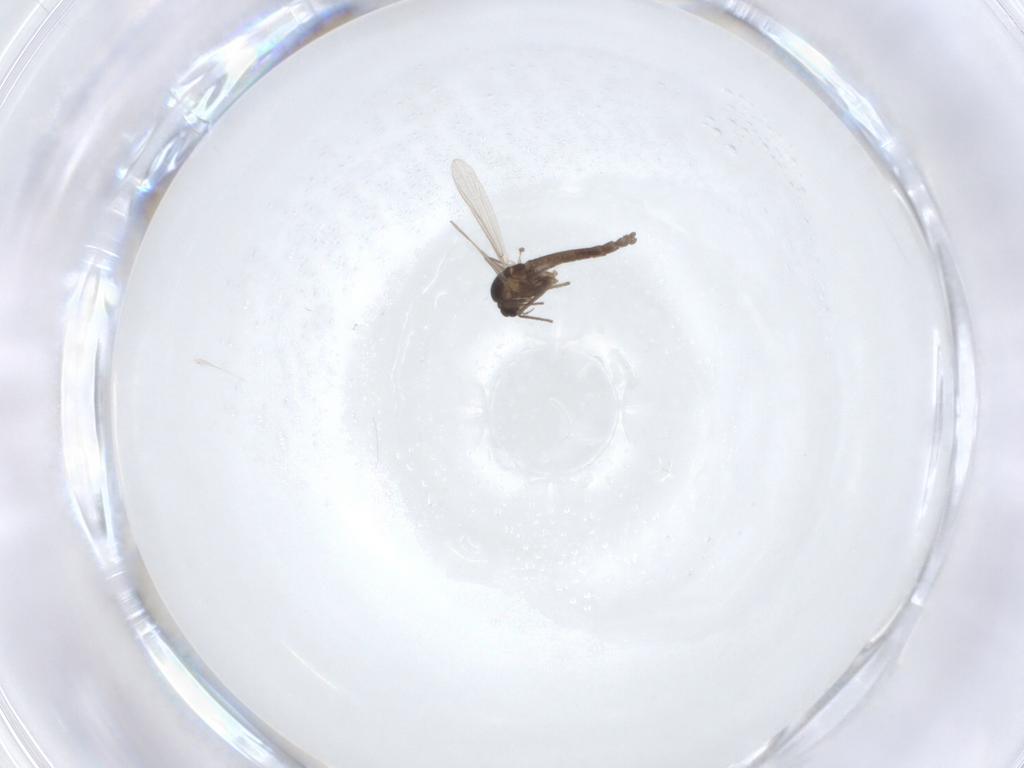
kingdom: Animalia
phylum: Arthropoda
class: Insecta
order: Diptera
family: Chironomidae
